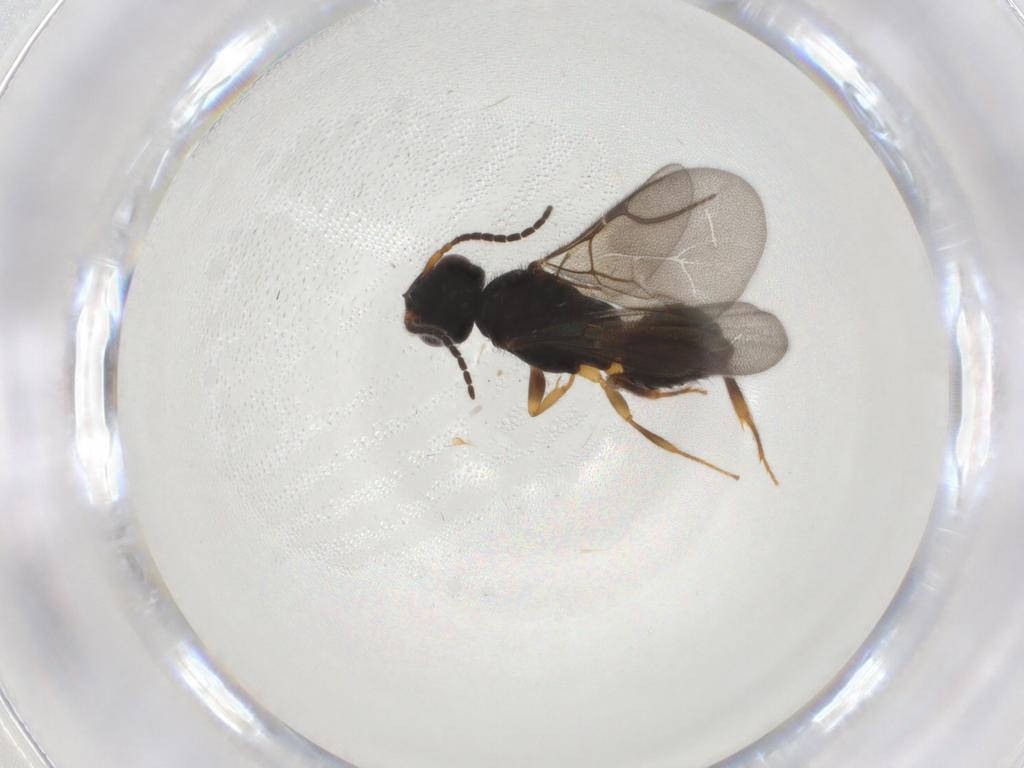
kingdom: Animalia
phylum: Arthropoda
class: Insecta
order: Hymenoptera
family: Bethylidae
